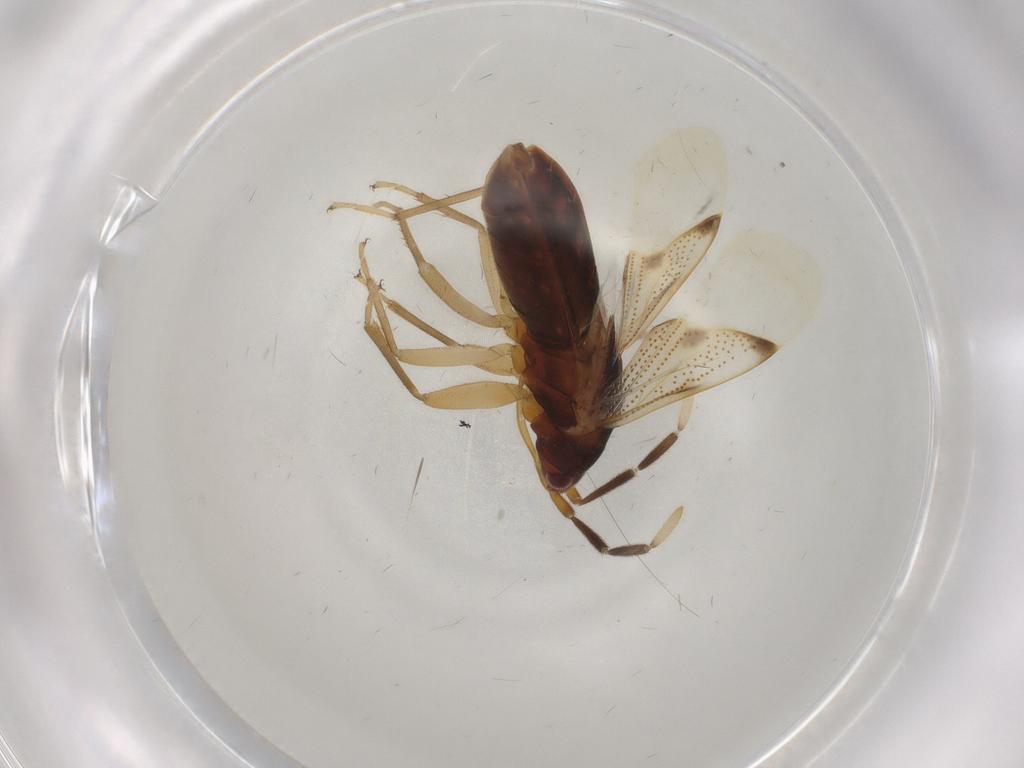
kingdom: Animalia
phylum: Arthropoda
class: Insecta
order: Hemiptera
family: Rhyparochromidae
